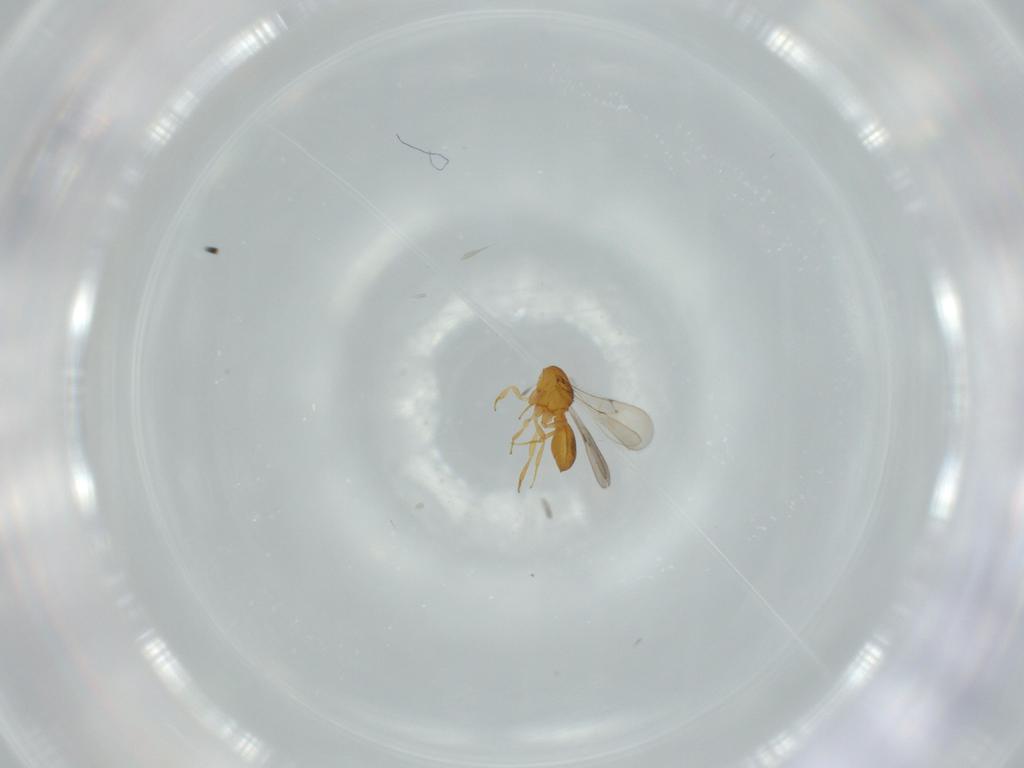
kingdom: Animalia
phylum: Arthropoda
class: Insecta
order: Hymenoptera
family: Scelionidae
